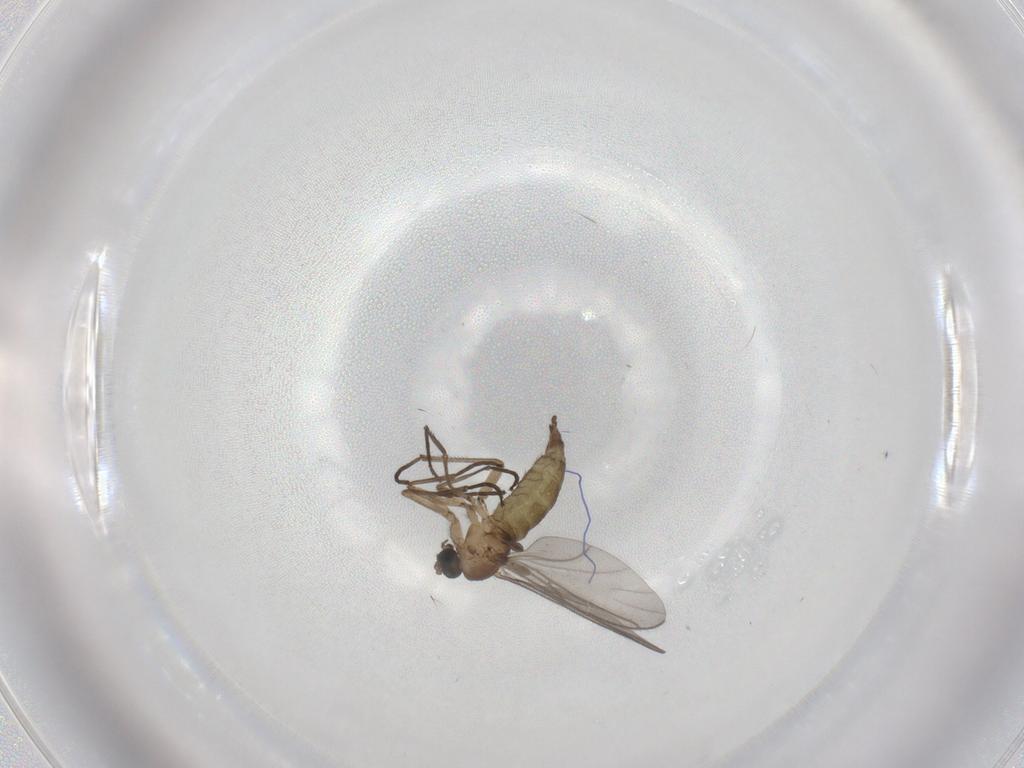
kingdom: Animalia
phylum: Arthropoda
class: Insecta
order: Diptera
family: Sciaridae
